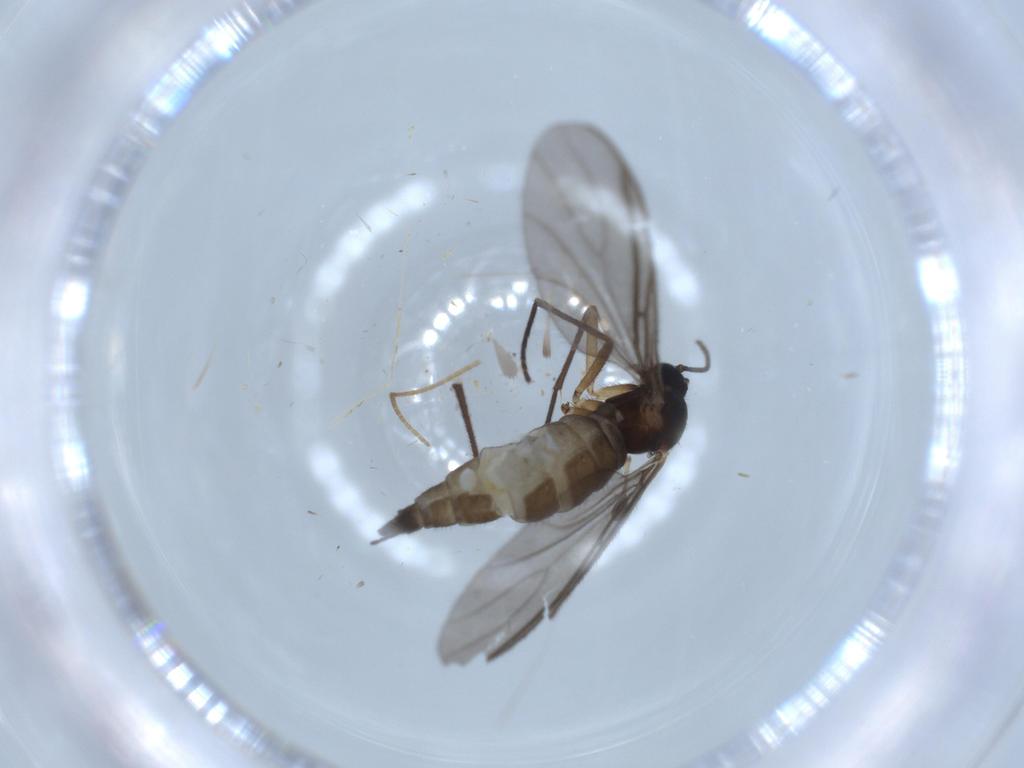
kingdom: Animalia
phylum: Arthropoda
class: Insecta
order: Diptera
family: Sciaridae
